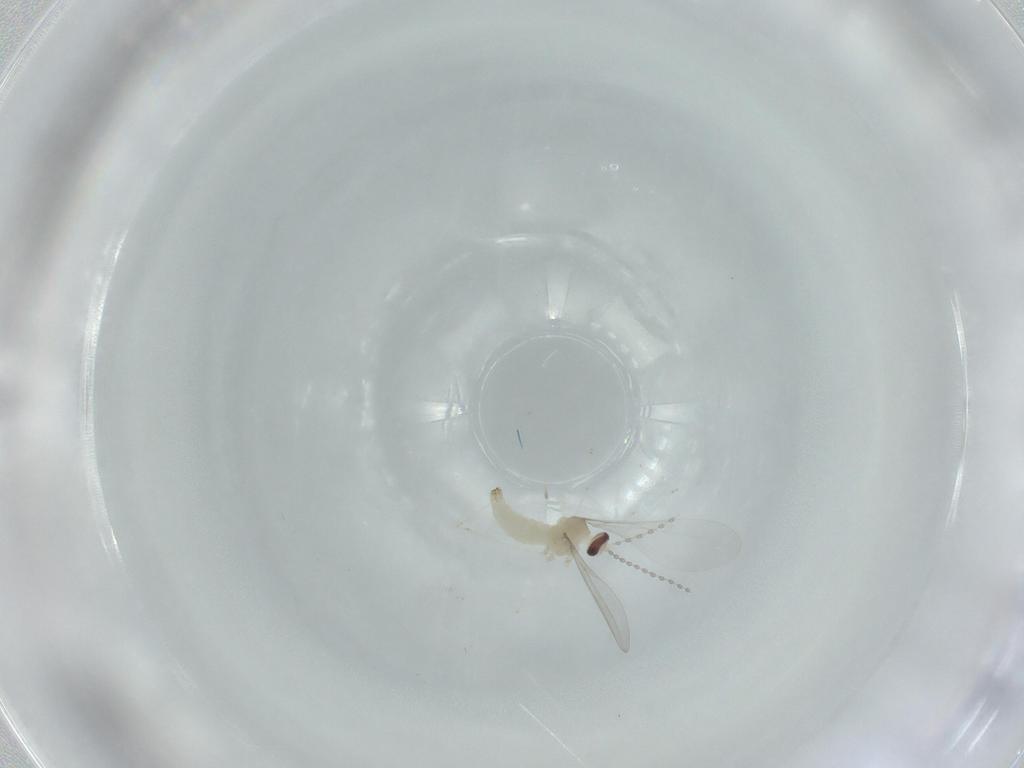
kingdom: Animalia
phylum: Arthropoda
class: Insecta
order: Diptera
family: Cecidomyiidae
